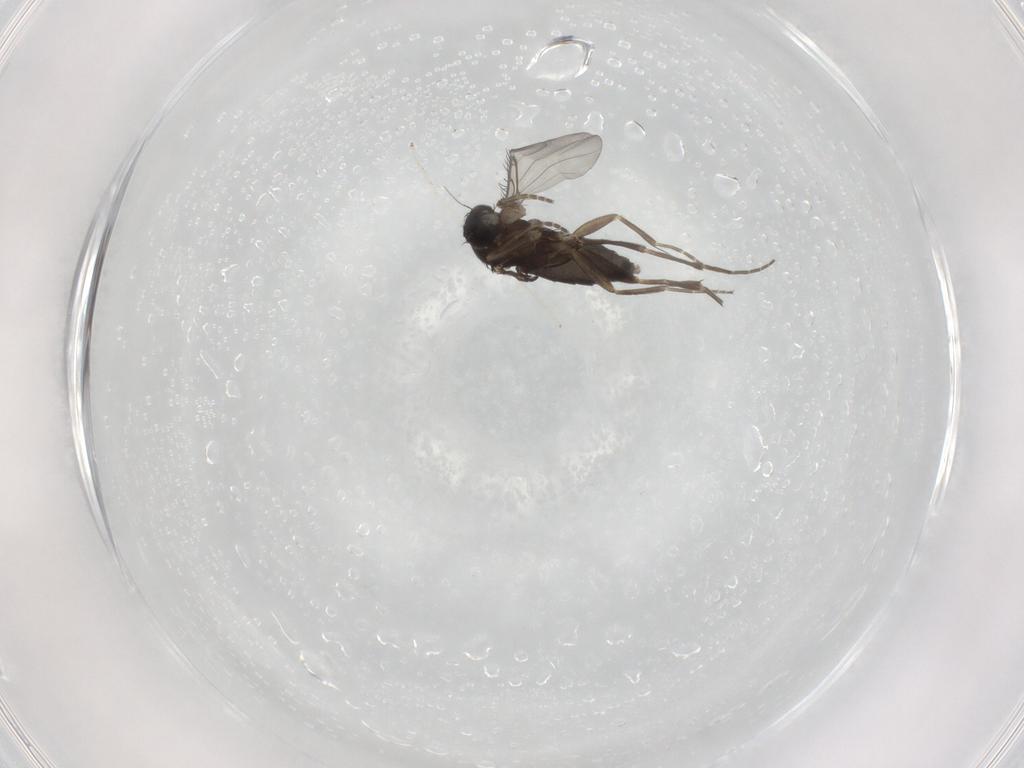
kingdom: Animalia
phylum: Arthropoda
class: Insecta
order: Diptera
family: Phoridae
